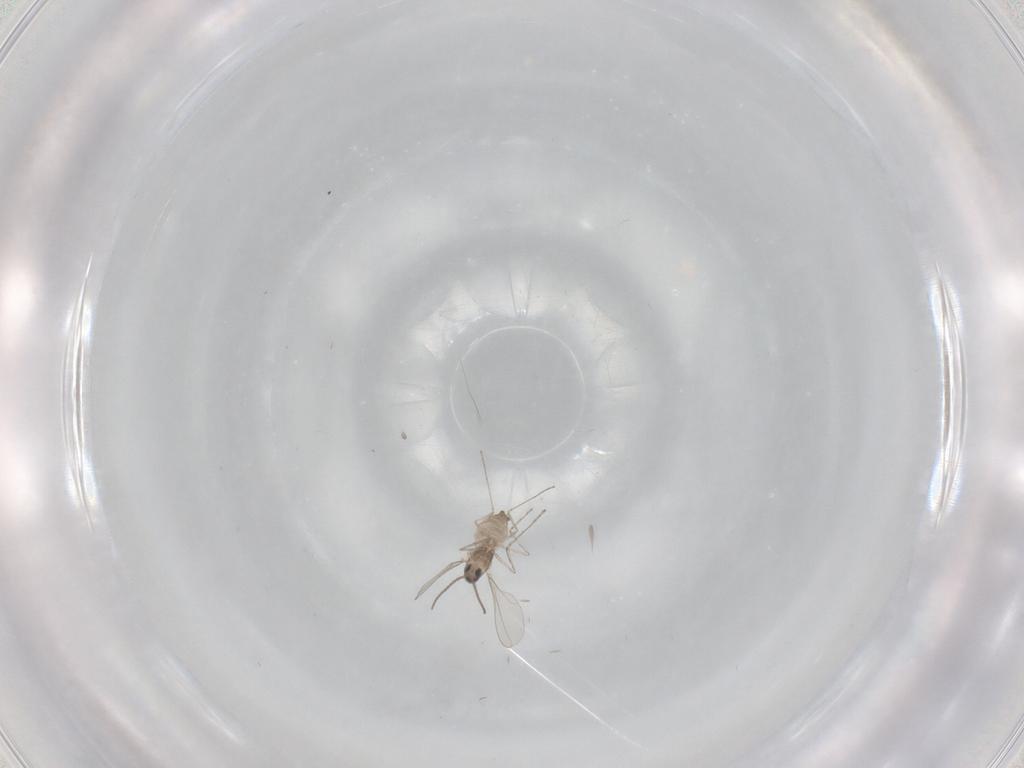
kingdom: Animalia
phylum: Arthropoda
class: Insecta
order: Diptera
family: Cecidomyiidae
